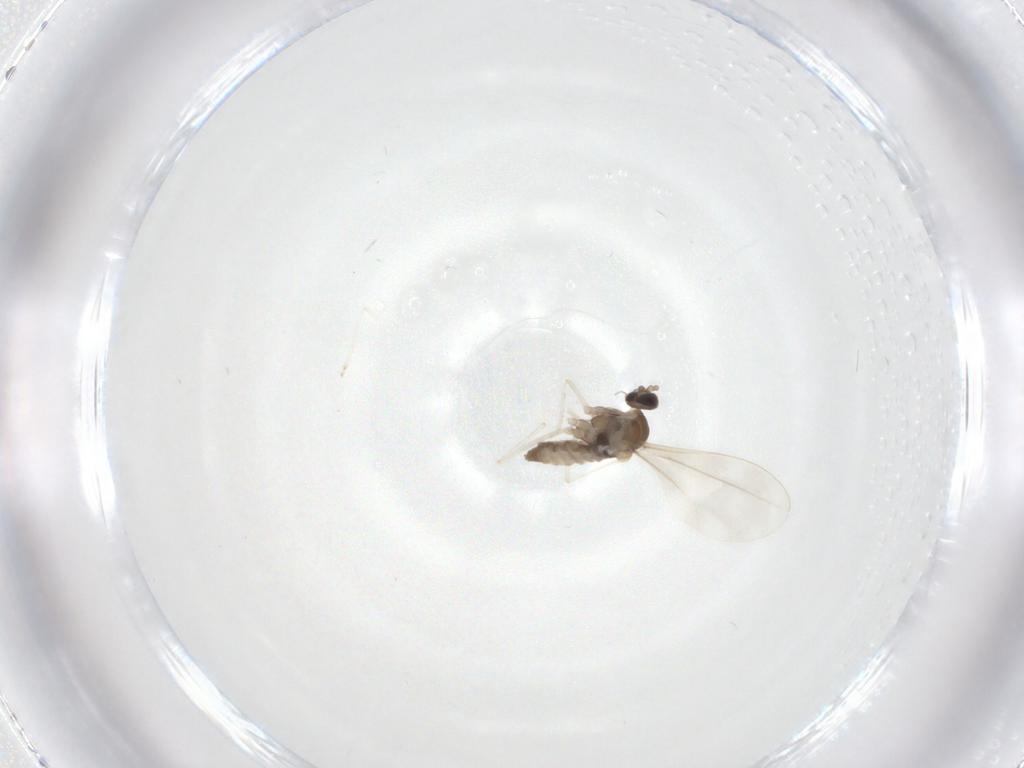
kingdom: Animalia
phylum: Arthropoda
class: Insecta
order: Diptera
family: Cecidomyiidae
